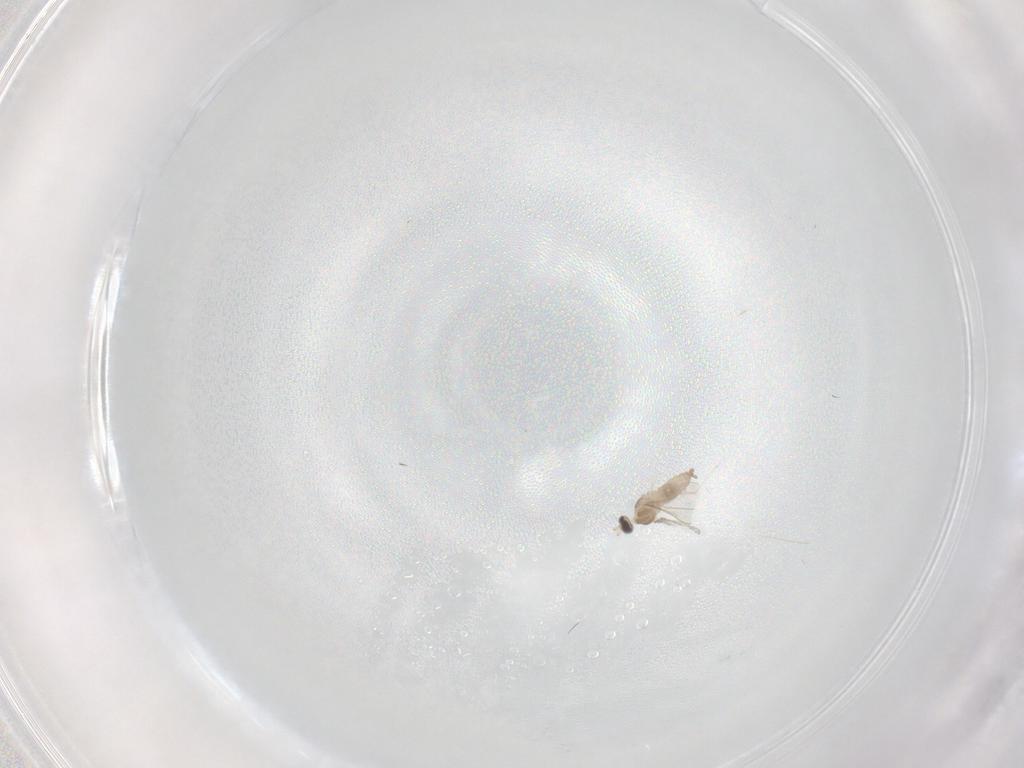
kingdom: Animalia
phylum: Arthropoda
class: Insecta
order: Diptera
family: Cecidomyiidae
